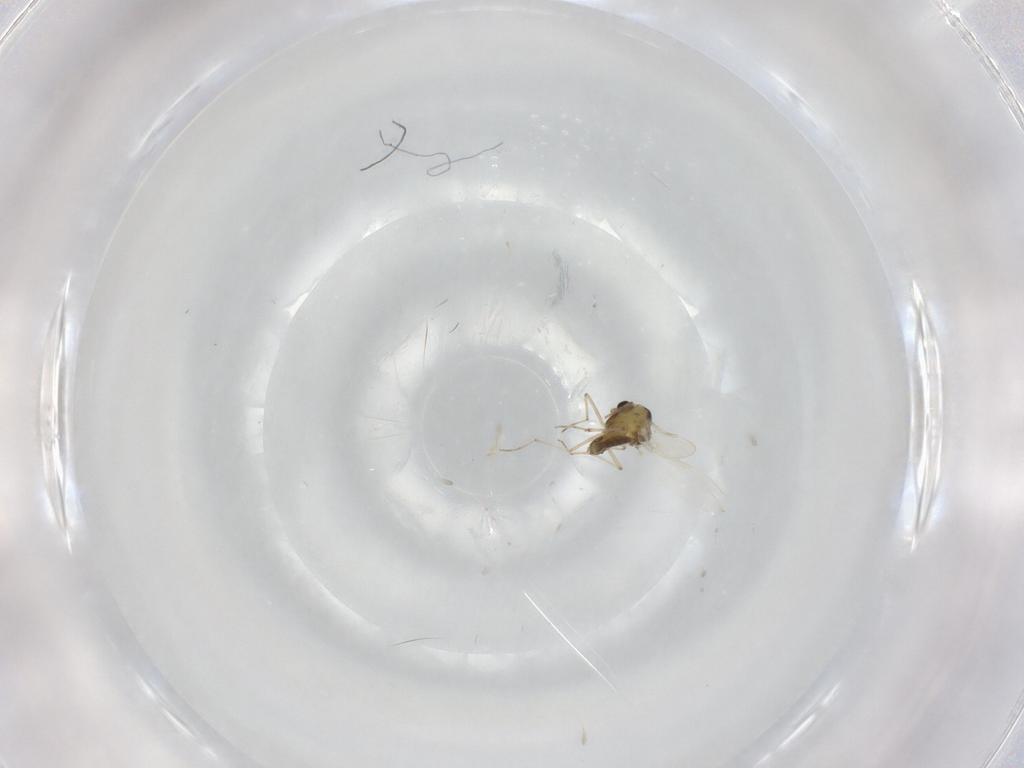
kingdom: Animalia
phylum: Arthropoda
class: Insecta
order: Diptera
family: Chironomidae
